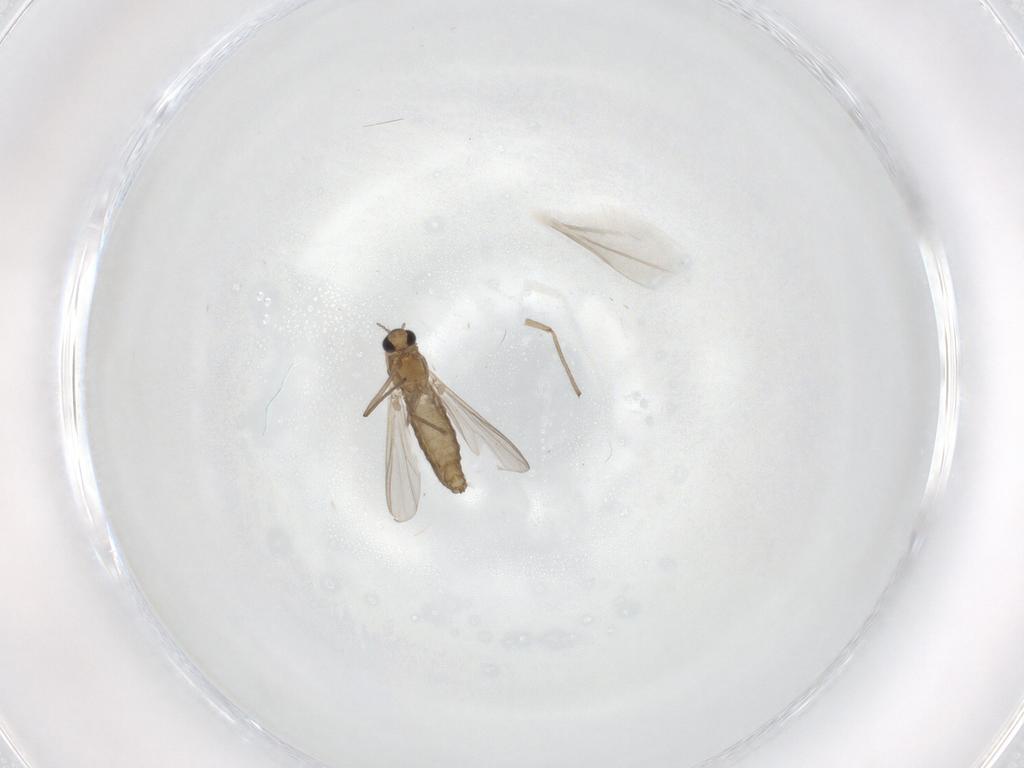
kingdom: Animalia
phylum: Arthropoda
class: Insecta
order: Diptera
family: Chironomidae
